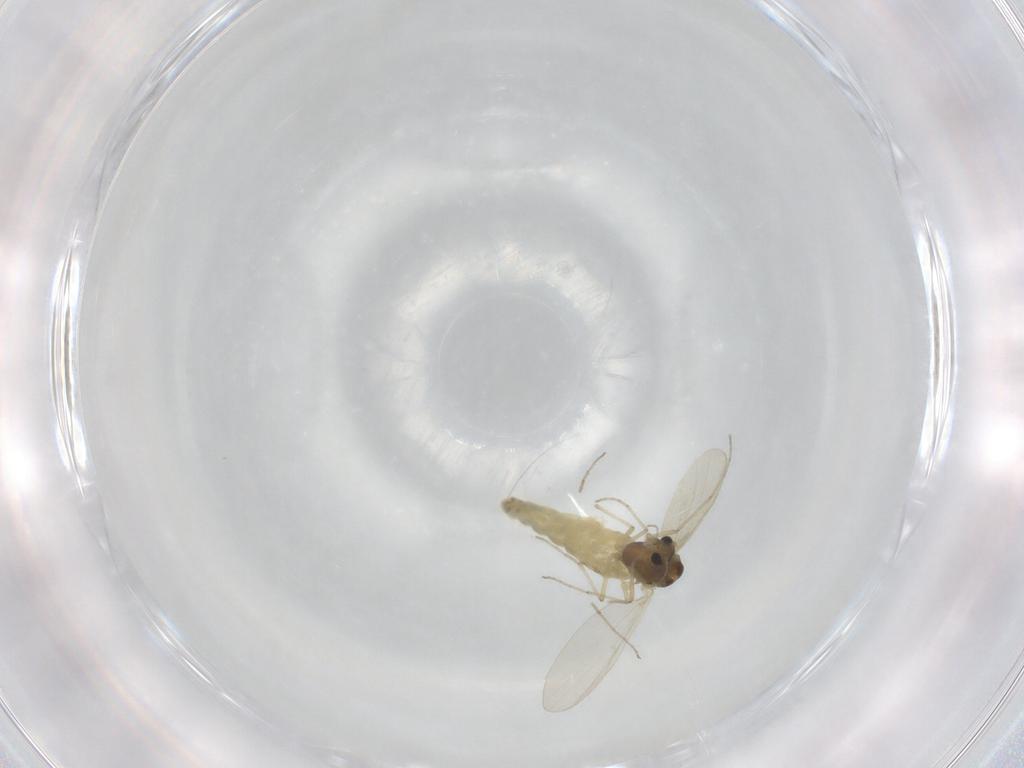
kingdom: Animalia
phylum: Arthropoda
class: Insecta
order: Diptera
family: Chironomidae
